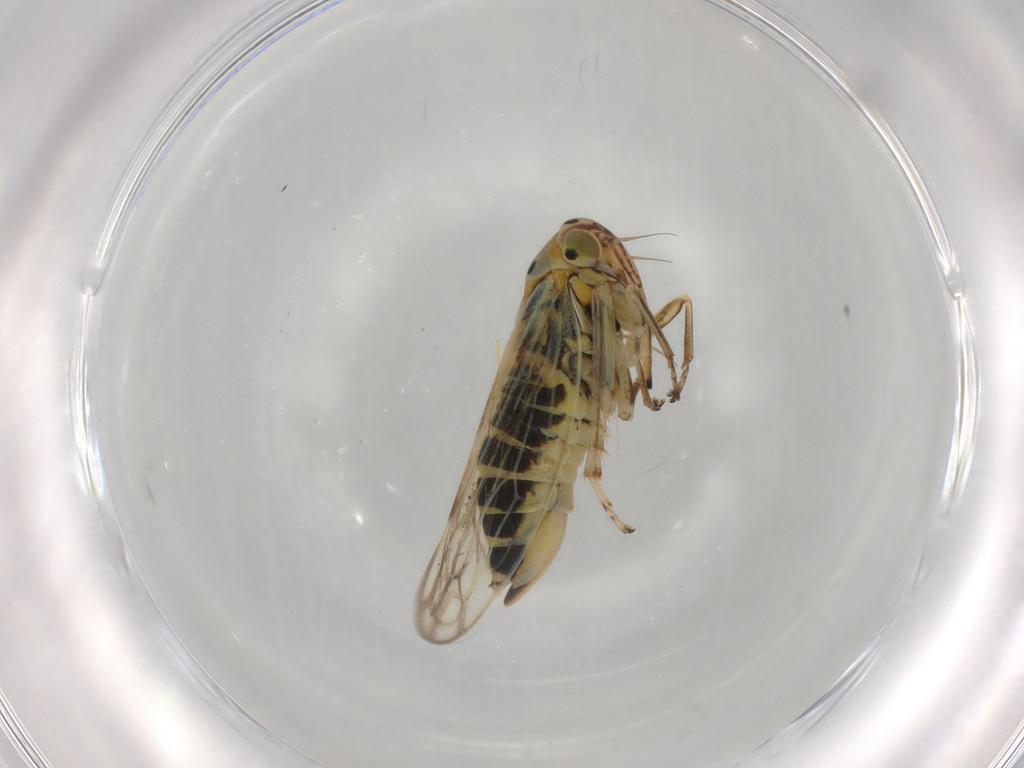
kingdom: Animalia
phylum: Arthropoda
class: Insecta
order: Hemiptera
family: Cicadellidae
